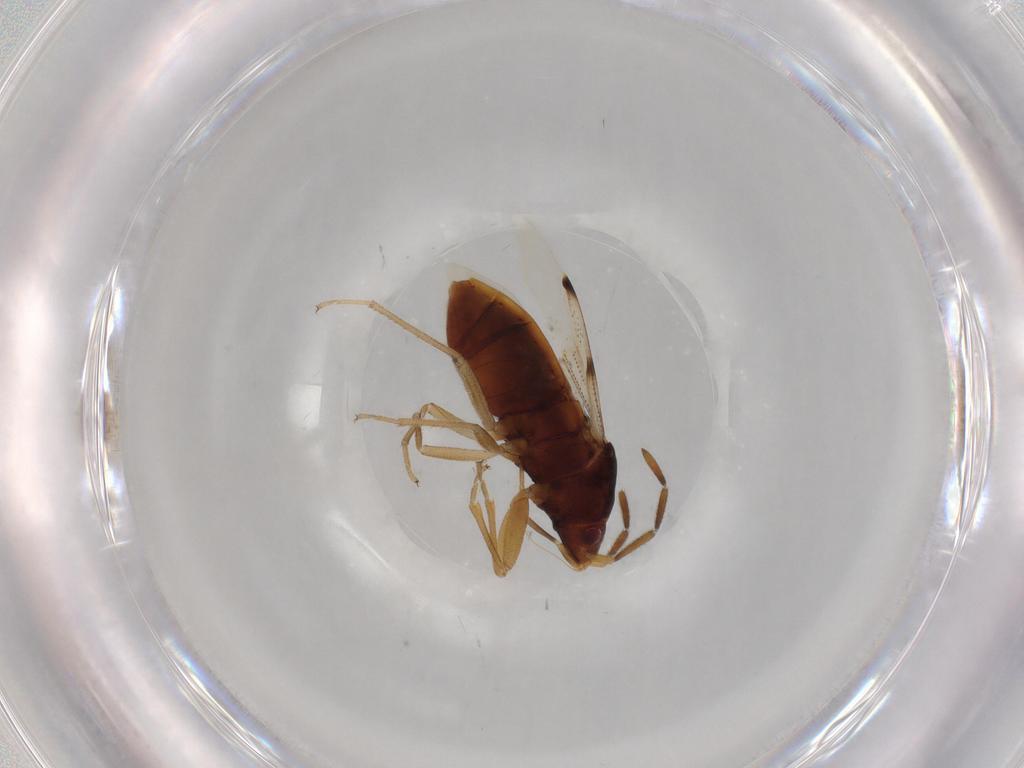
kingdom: Animalia
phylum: Arthropoda
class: Insecta
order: Hemiptera
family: Rhyparochromidae
